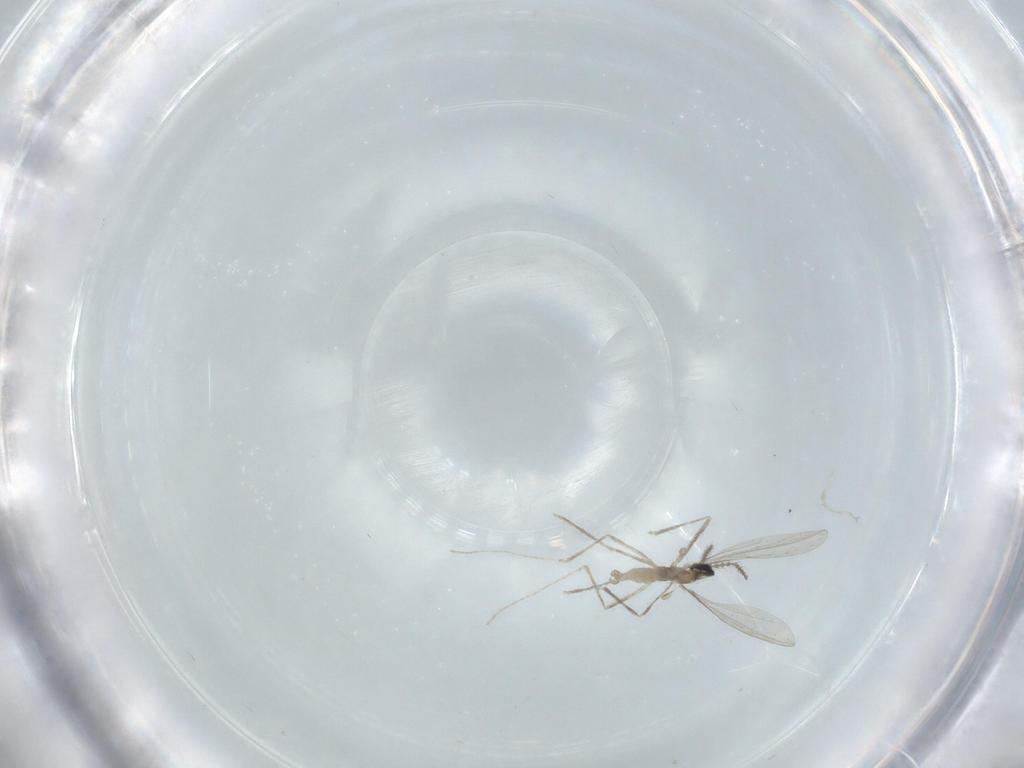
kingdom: Animalia
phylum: Arthropoda
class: Insecta
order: Diptera
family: Cecidomyiidae
